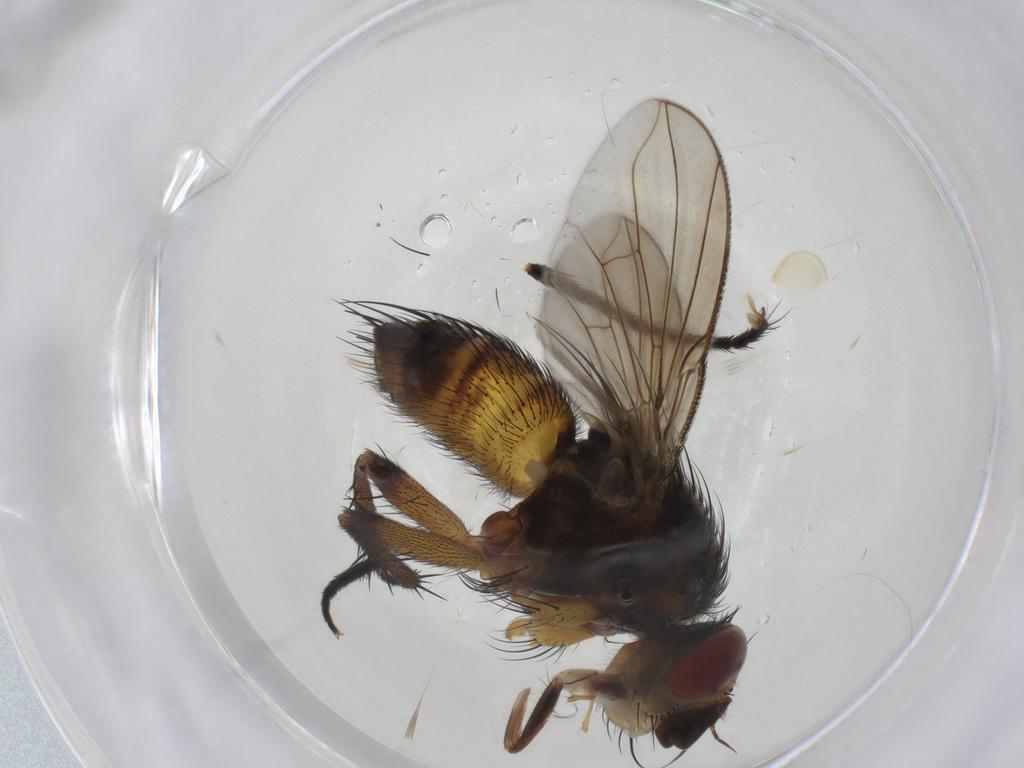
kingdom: Animalia
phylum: Arthropoda
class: Insecta
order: Diptera
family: Tachinidae
